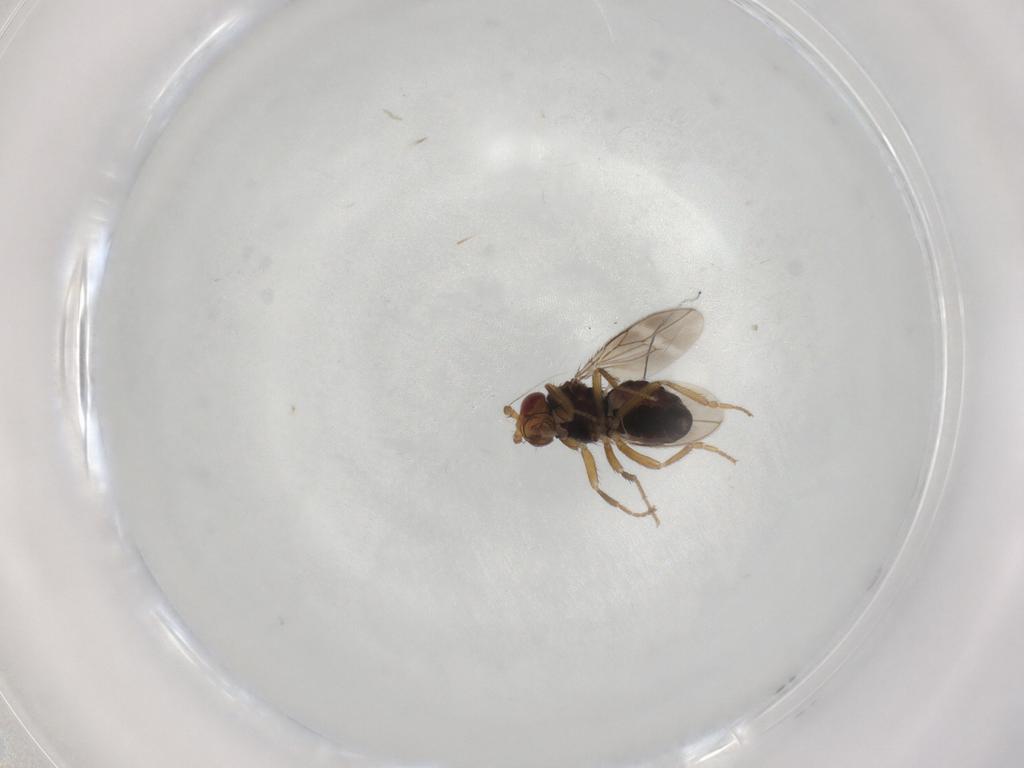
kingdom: Animalia
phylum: Arthropoda
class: Insecta
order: Diptera
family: Sphaeroceridae
